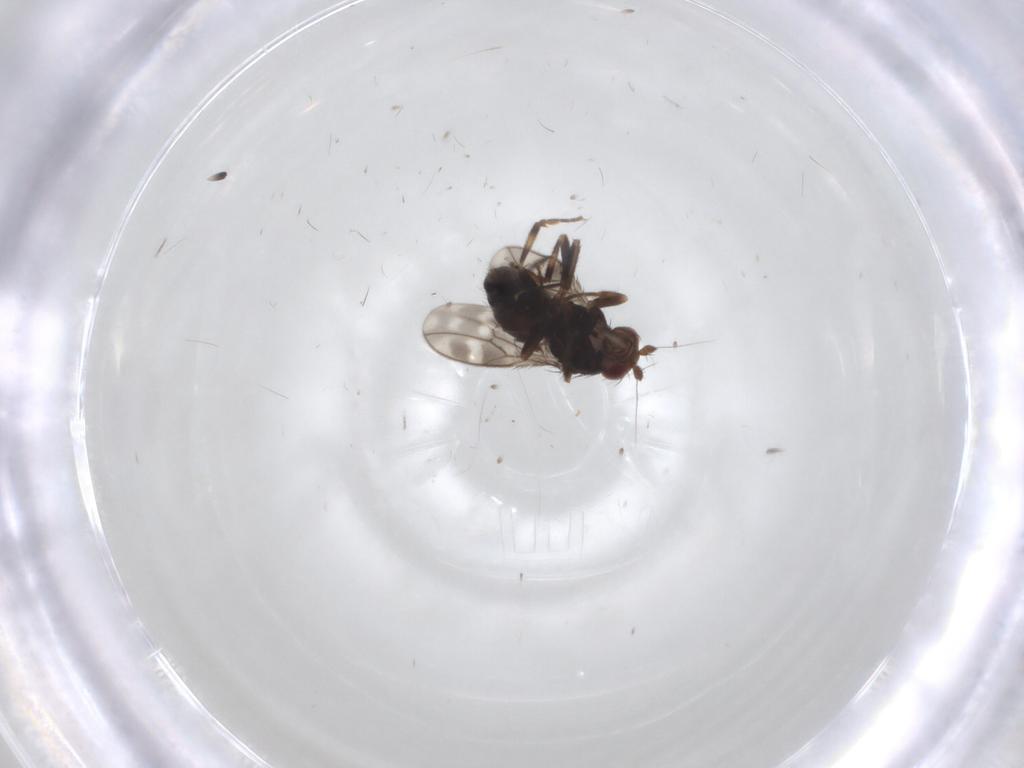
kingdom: Animalia
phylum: Arthropoda
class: Insecta
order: Diptera
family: Sphaeroceridae
